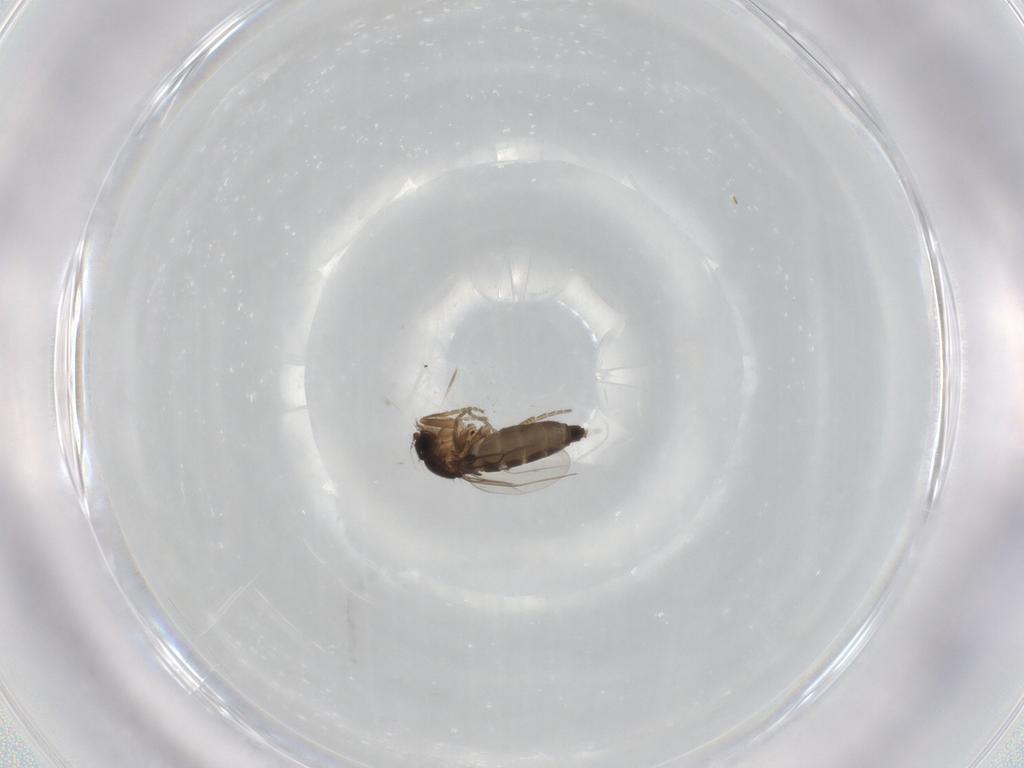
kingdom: Animalia
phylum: Arthropoda
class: Insecta
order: Diptera
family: Phoridae
